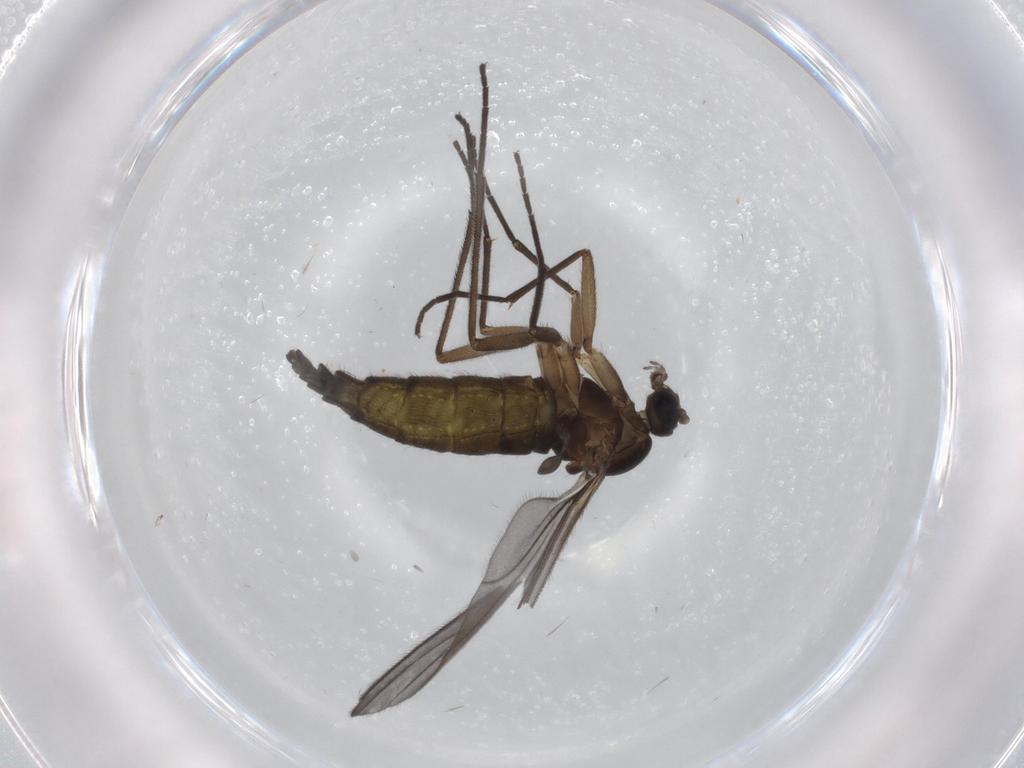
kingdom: Animalia
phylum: Arthropoda
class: Insecta
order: Diptera
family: Sciaridae
